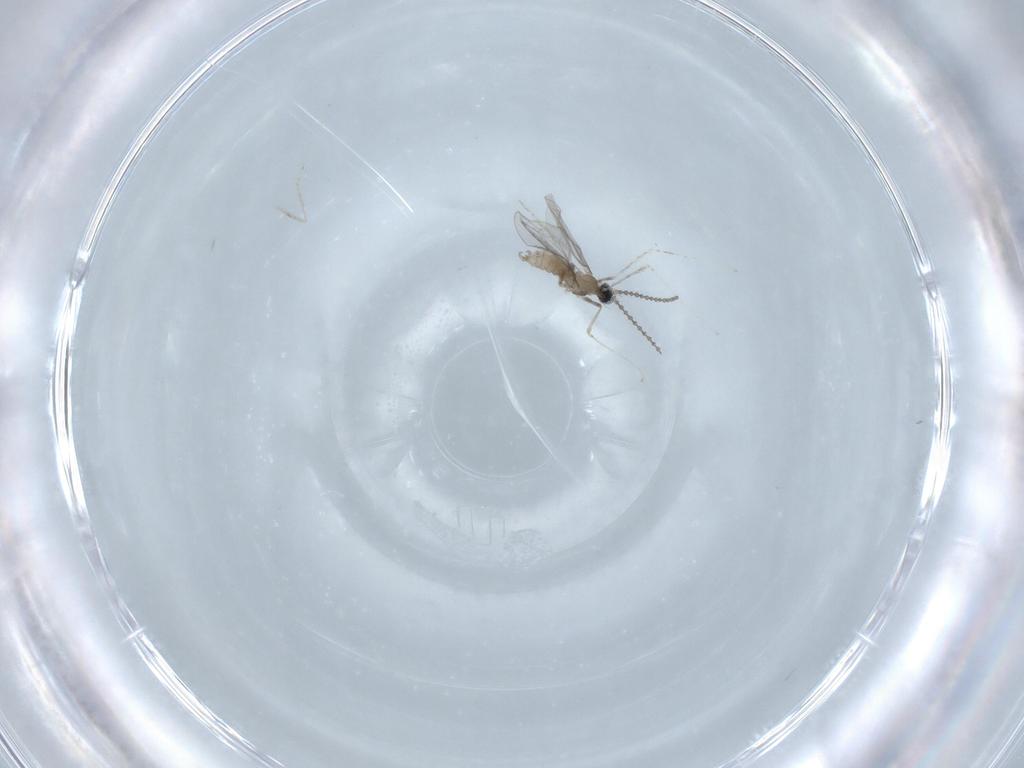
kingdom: Animalia
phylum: Arthropoda
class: Insecta
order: Diptera
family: Cecidomyiidae
